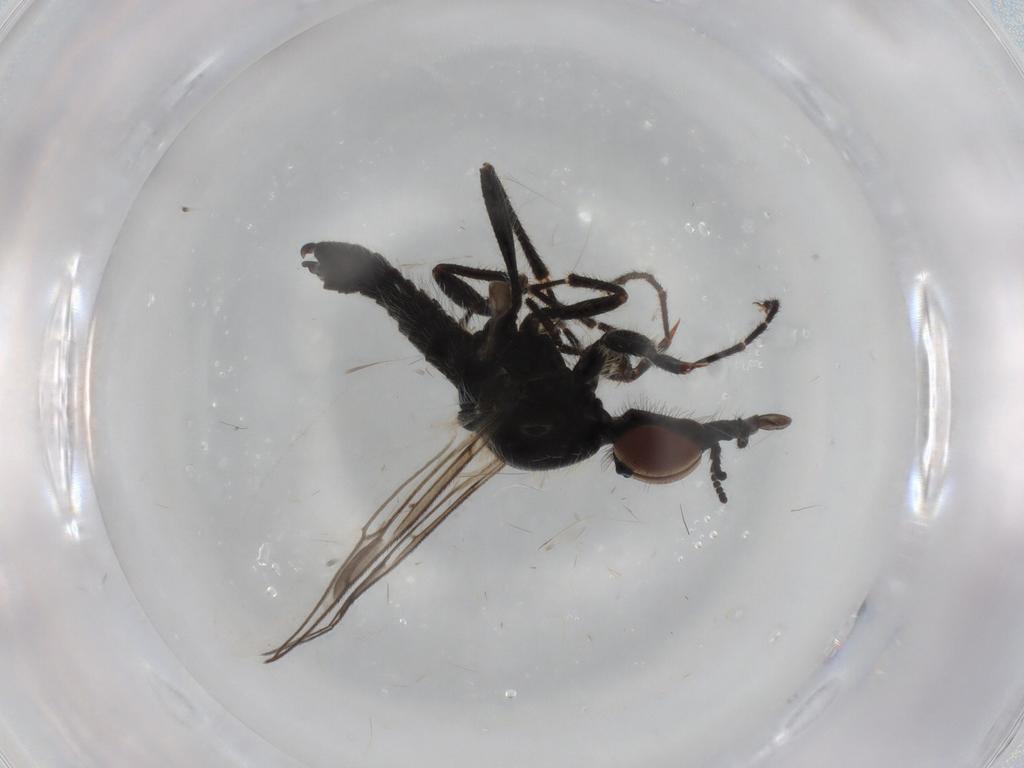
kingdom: Animalia
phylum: Arthropoda
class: Insecta
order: Diptera
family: Bibionidae
